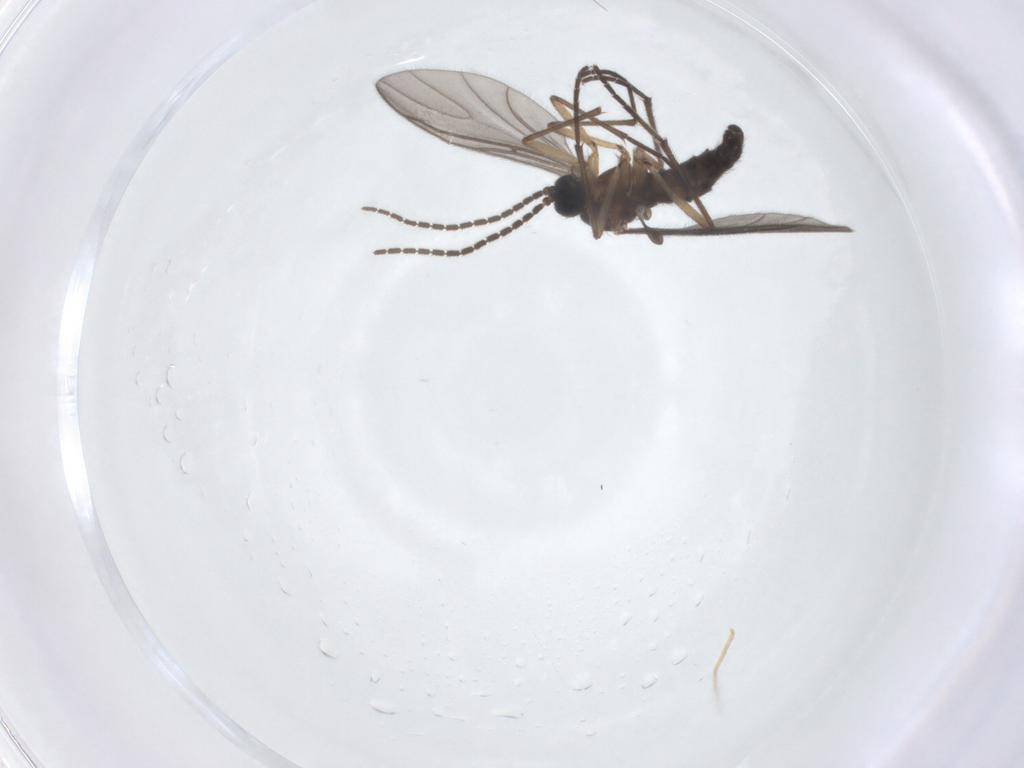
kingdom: Animalia
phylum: Arthropoda
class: Insecta
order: Diptera
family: Sciaridae
